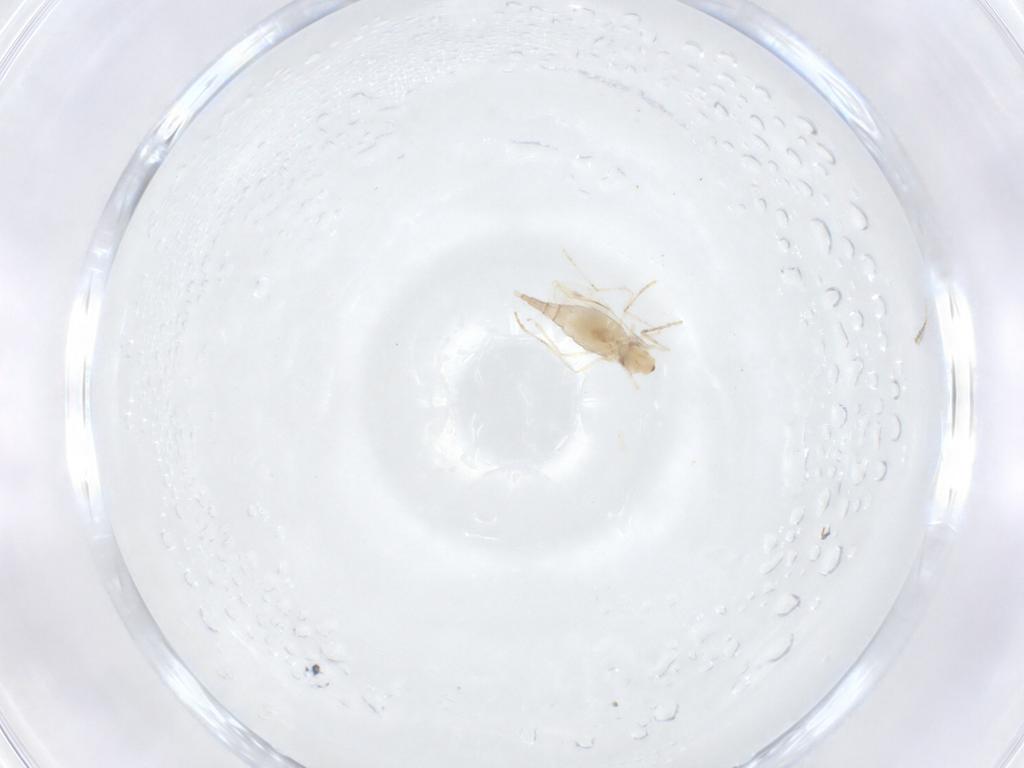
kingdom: Animalia
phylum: Arthropoda
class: Insecta
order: Diptera
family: Cecidomyiidae
